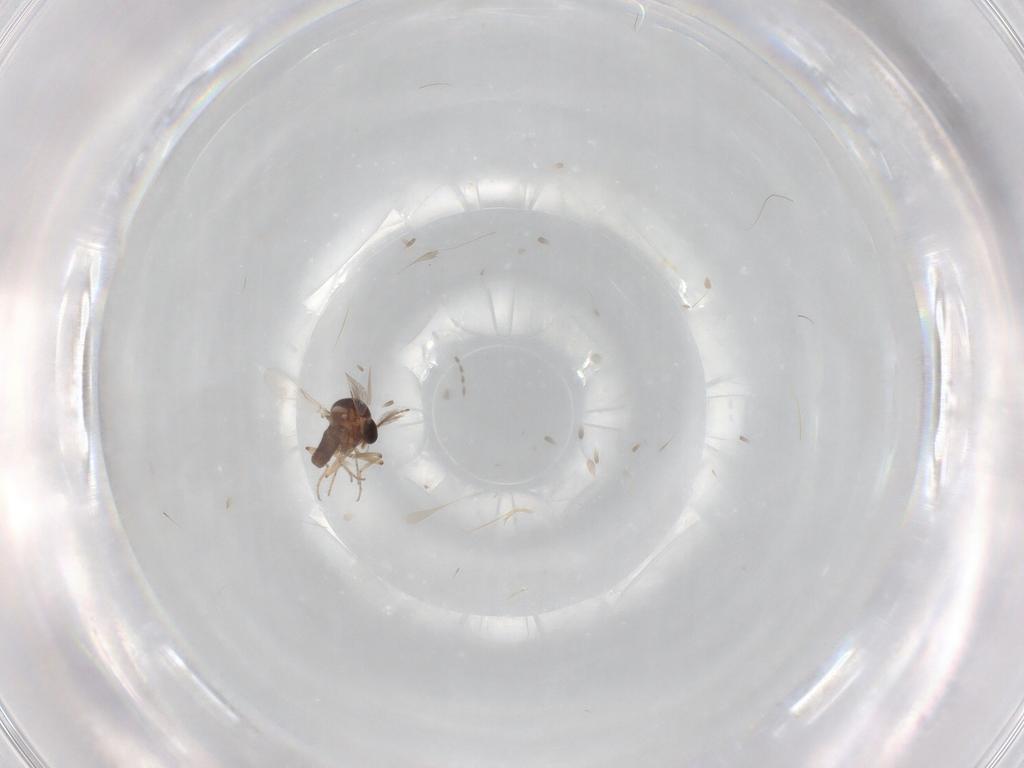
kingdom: Animalia
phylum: Arthropoda
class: Insecta
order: Diptera
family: Ceratopogonidae
